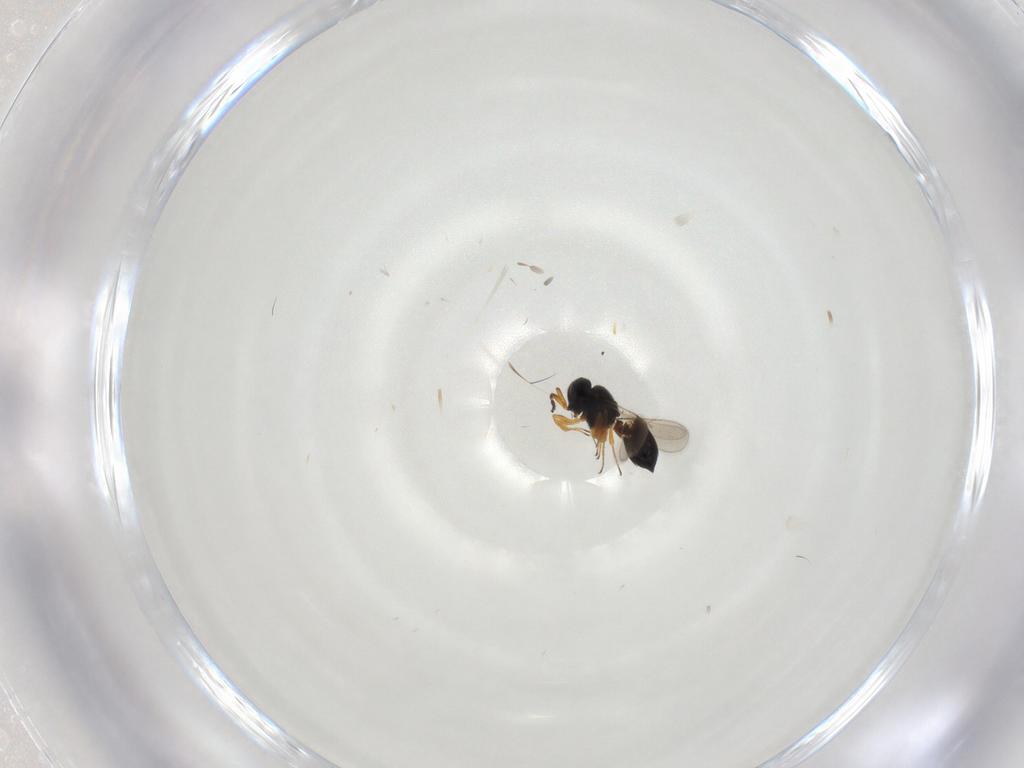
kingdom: Animalia
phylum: Arthropoda
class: Insecta
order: Hymenoptera
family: Scelionidae
